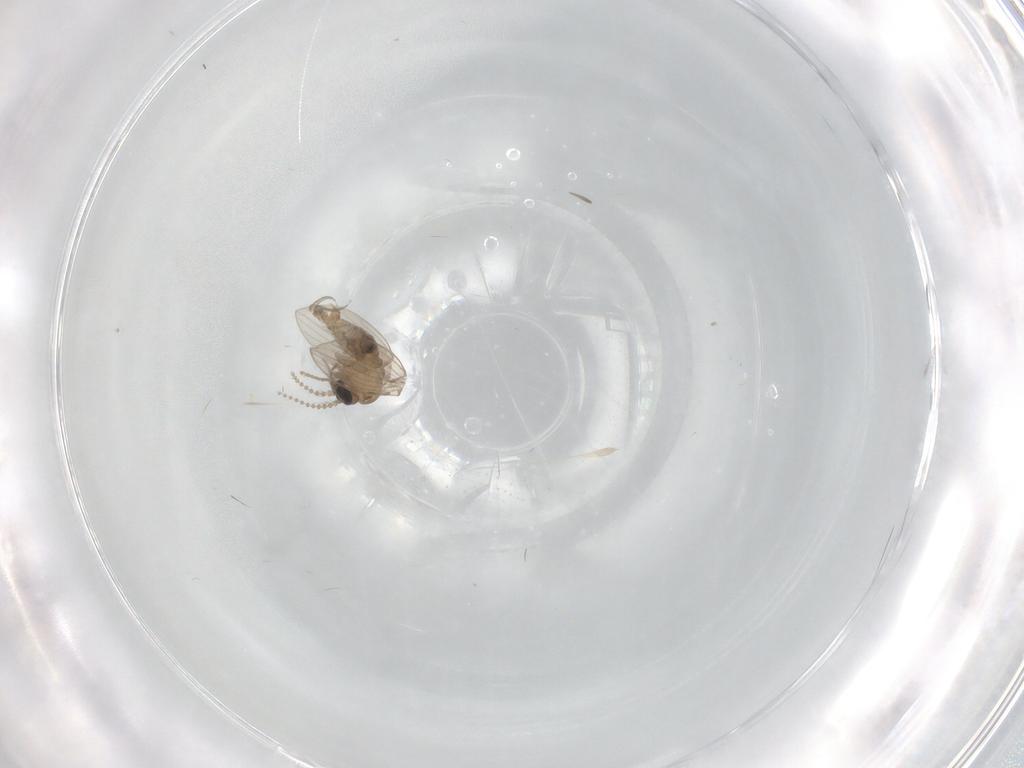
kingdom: Animalia
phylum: Arthropoda
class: Insecta
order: Diptera
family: Psychodidae
